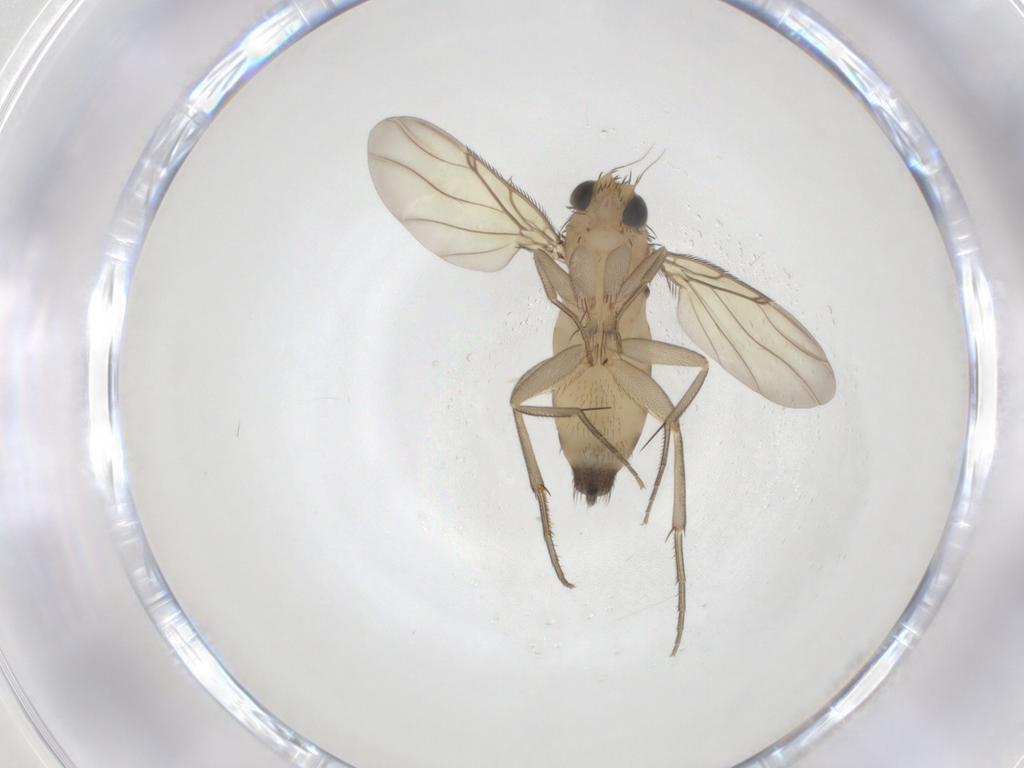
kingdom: Animalia
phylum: Arthropoda
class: Insecta
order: Diptera
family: Phoridae
